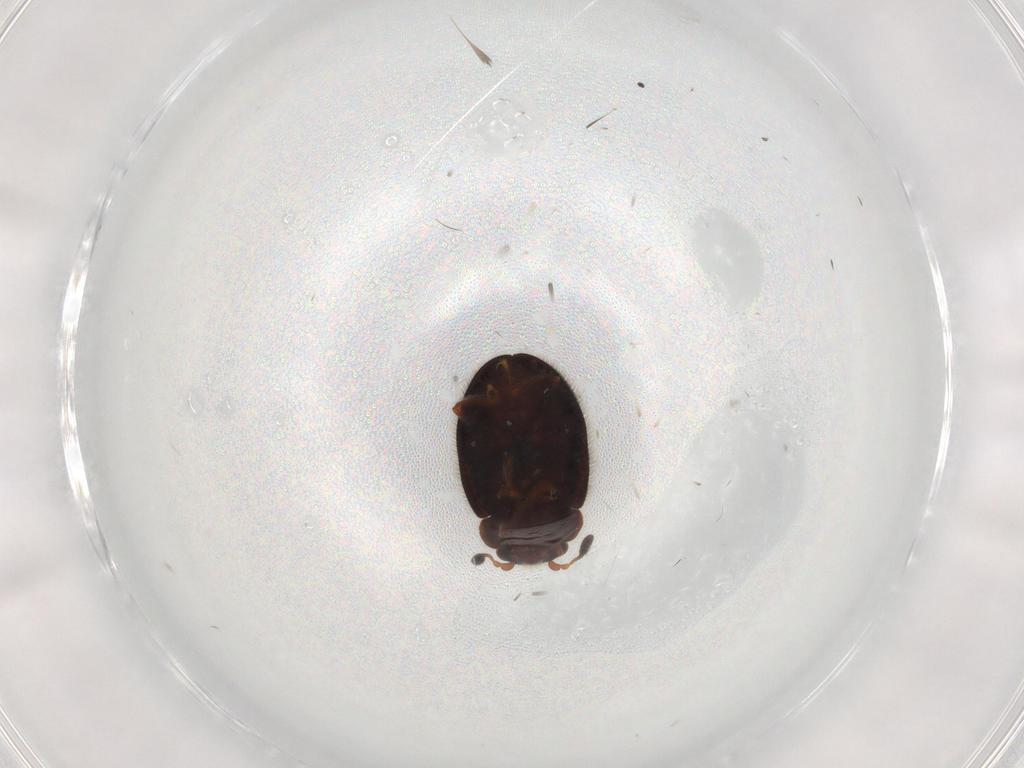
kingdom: Animalia
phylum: Arthropoda
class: Insecta
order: Coleoptera
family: Sphindidae
